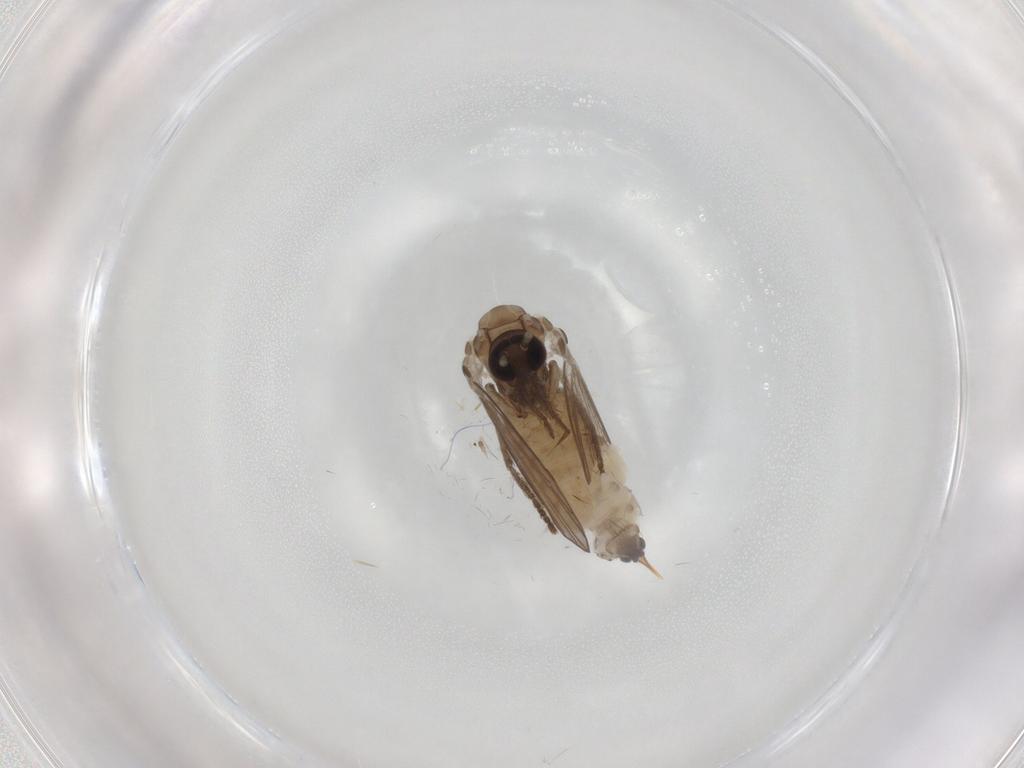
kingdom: Animalia
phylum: Arthropoda
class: Insecta
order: Diptera
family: Psychodidae
